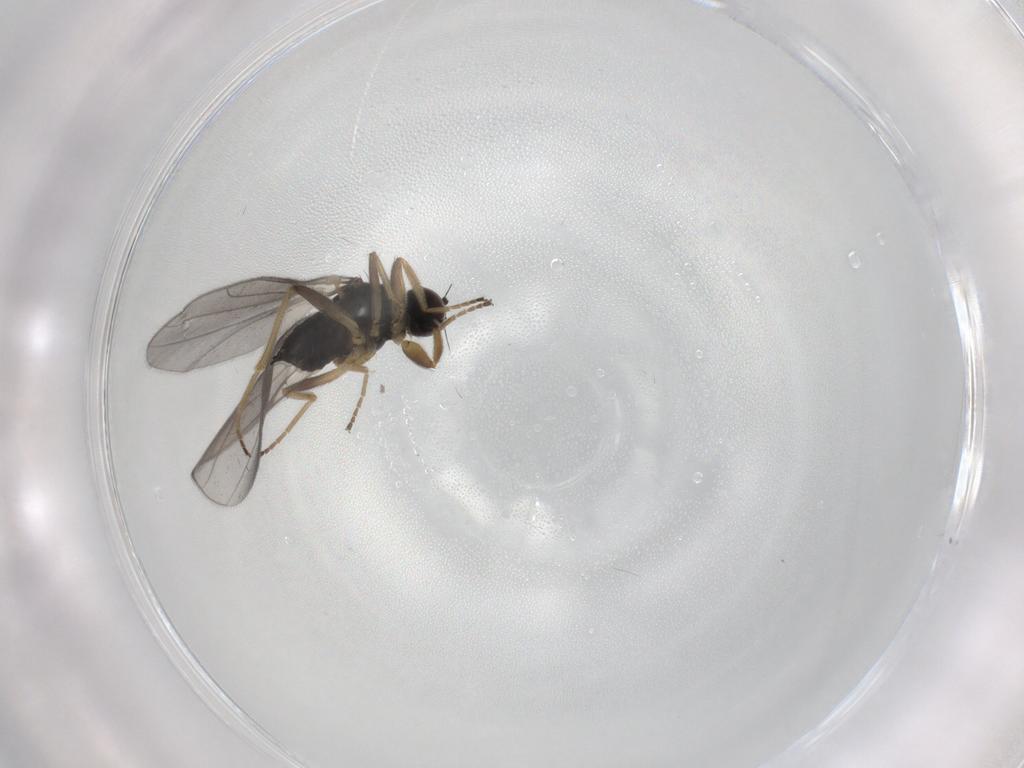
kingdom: Animalia
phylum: Arthropoda
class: Insecta
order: Diptera
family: Hybotidae
